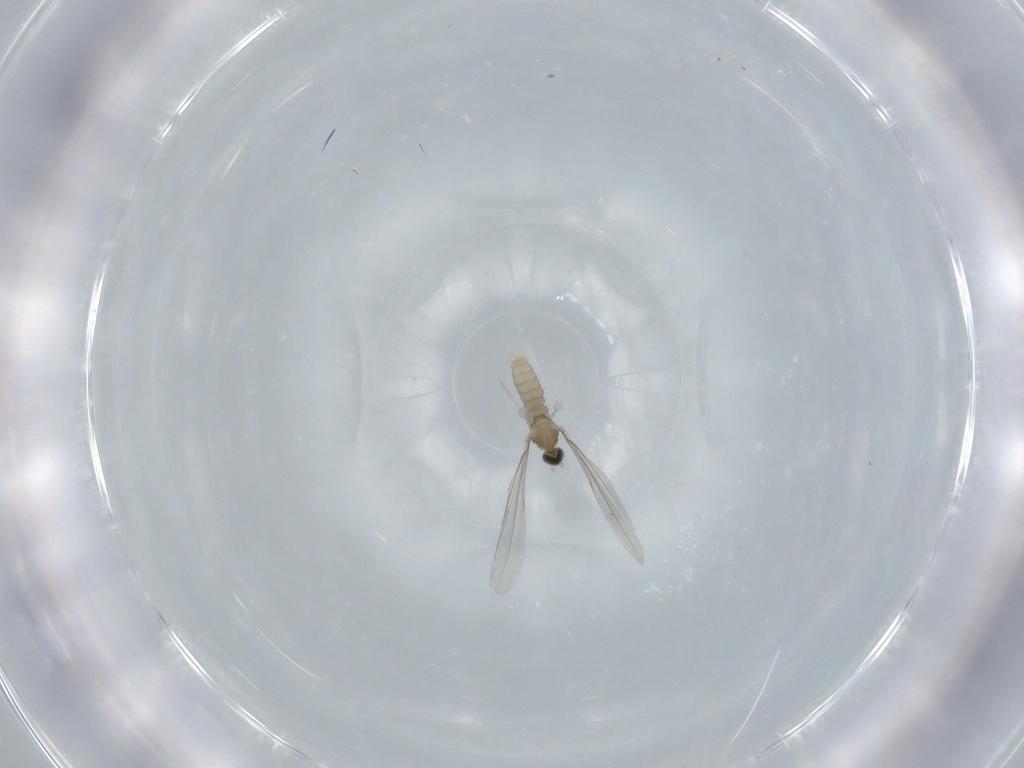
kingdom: Animalia
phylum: Arthropoda
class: Insecta
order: Diptera
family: Cecidomyiidae
